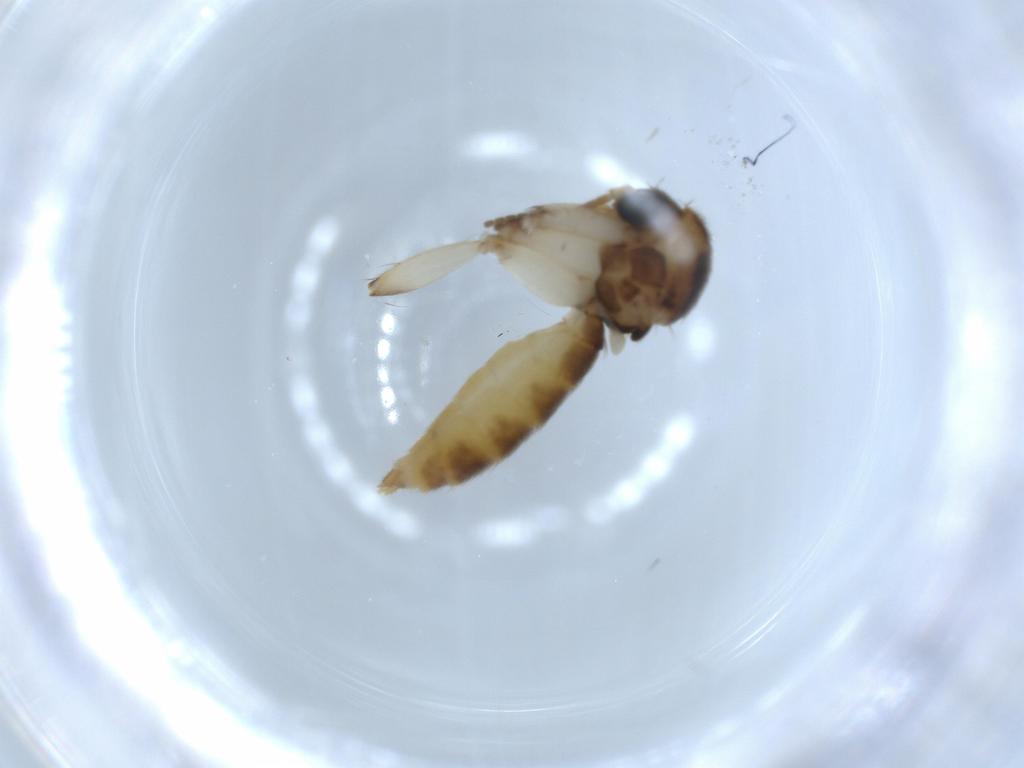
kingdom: Animalia
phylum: Arthropoda
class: Insecta
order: Diptera
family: Mycetophilidae
